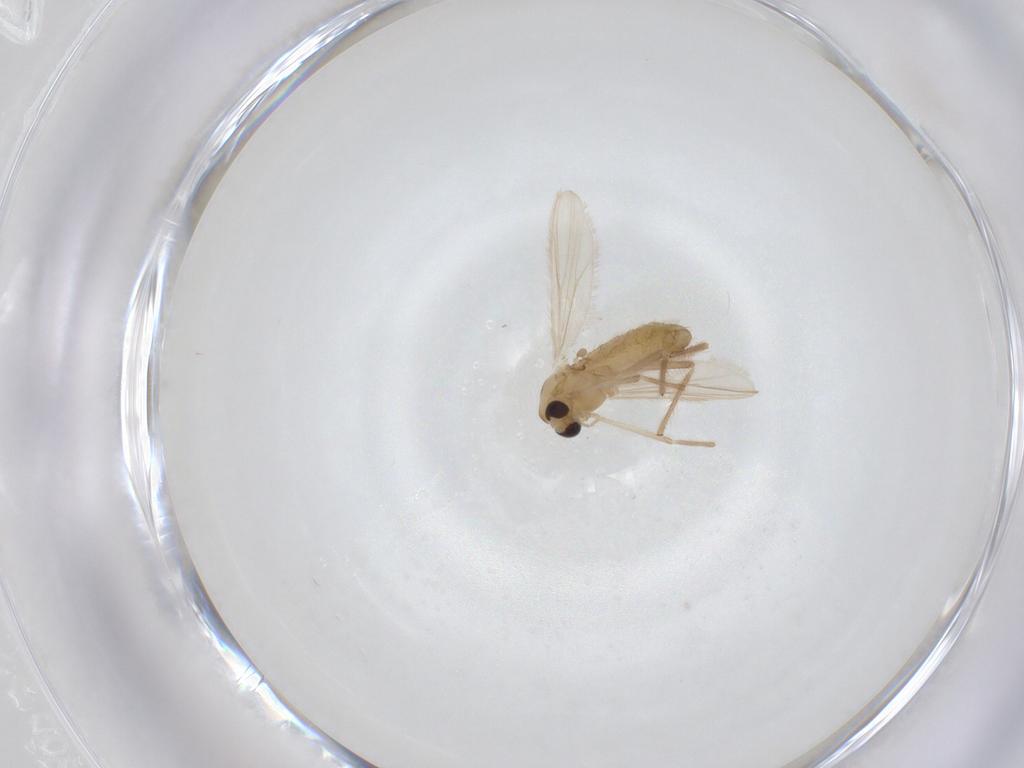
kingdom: Animalia
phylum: Arthropoda
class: Insecta
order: Diptera
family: Chironomidae
